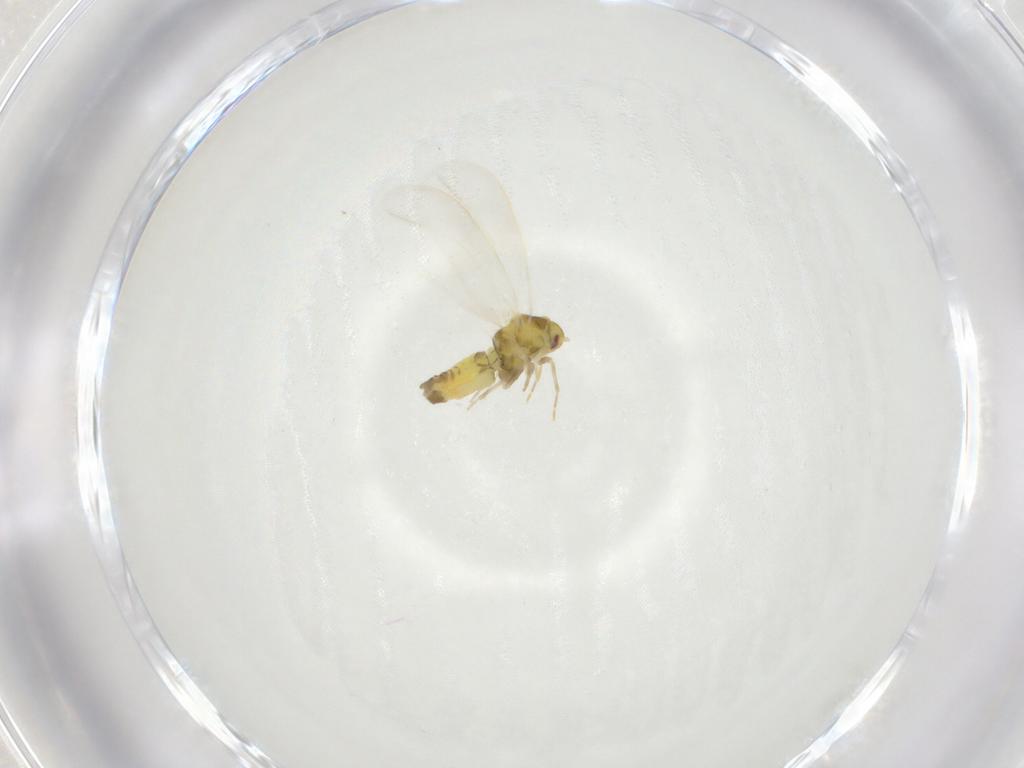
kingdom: Animalia
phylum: Arthropoda
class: Insecta
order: Hemiptera
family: Aleyrodidae
